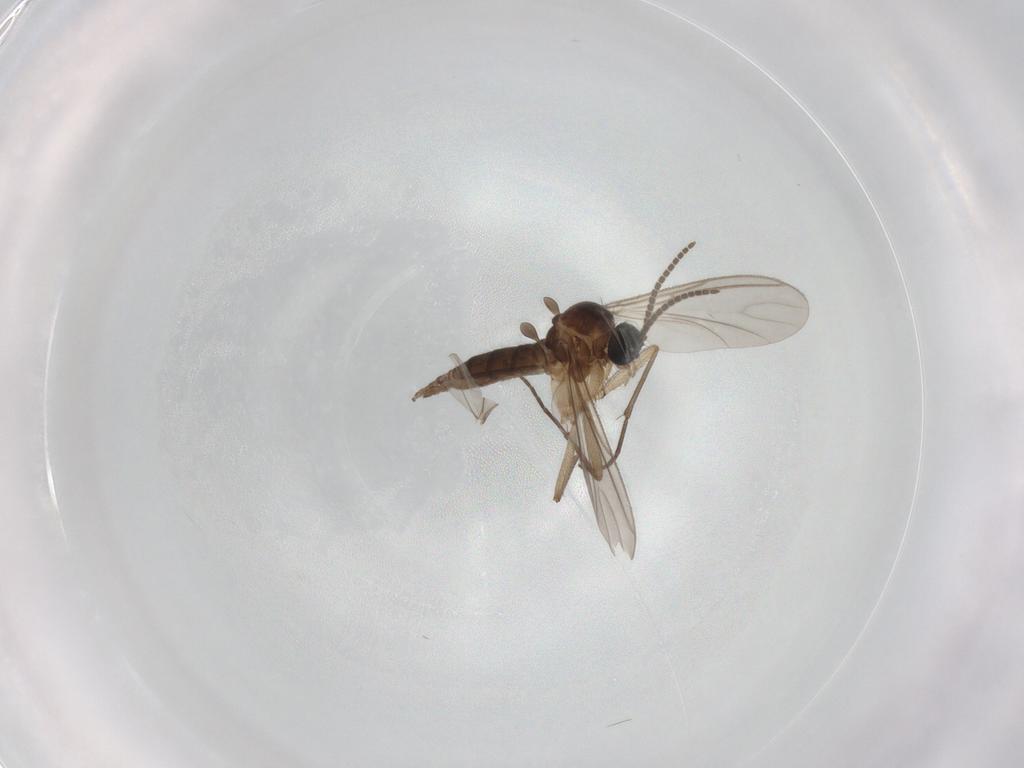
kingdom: Animalia
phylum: Arthropoda
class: Insecta
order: Diptera
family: Sciaridae
